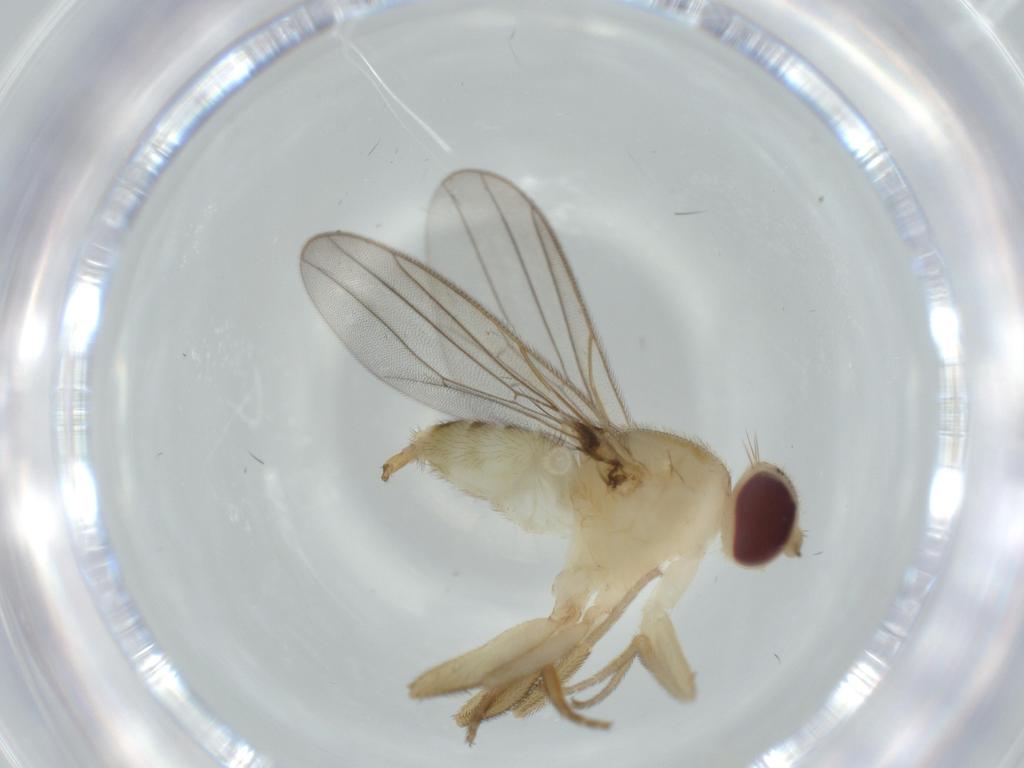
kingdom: Animalia
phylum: Arthropoda
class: Insecta
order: Diptera
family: Chloropidae
